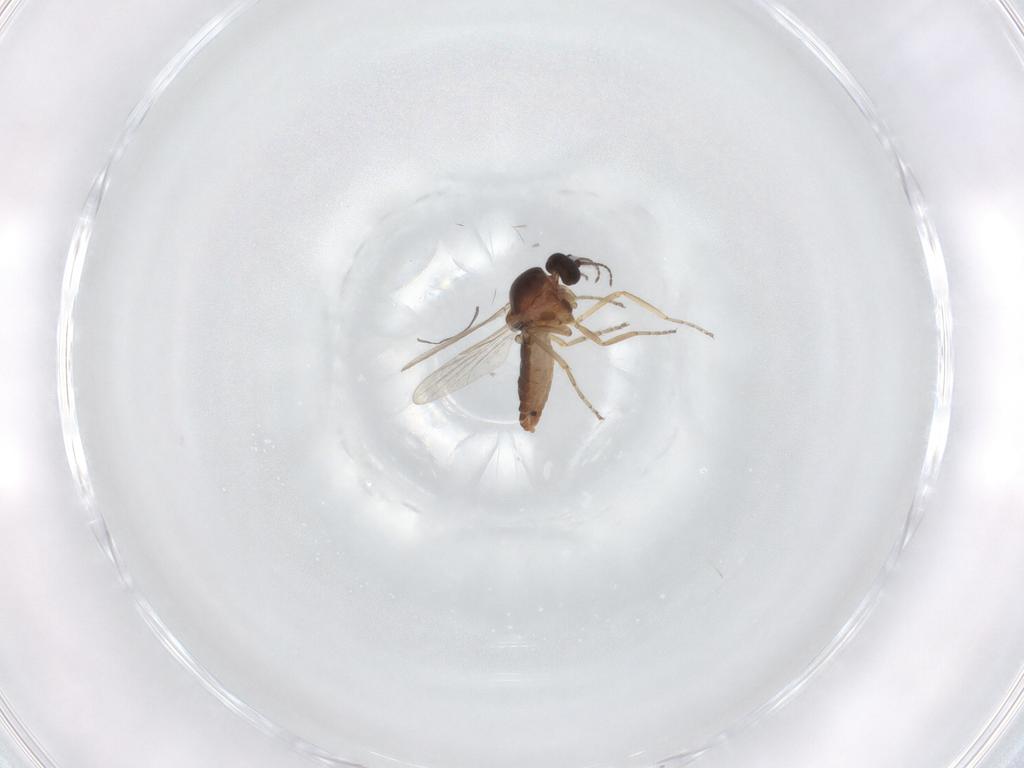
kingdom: Animalia
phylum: Arthropoda
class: Insecta
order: Diptera
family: Ceratopogonidae
